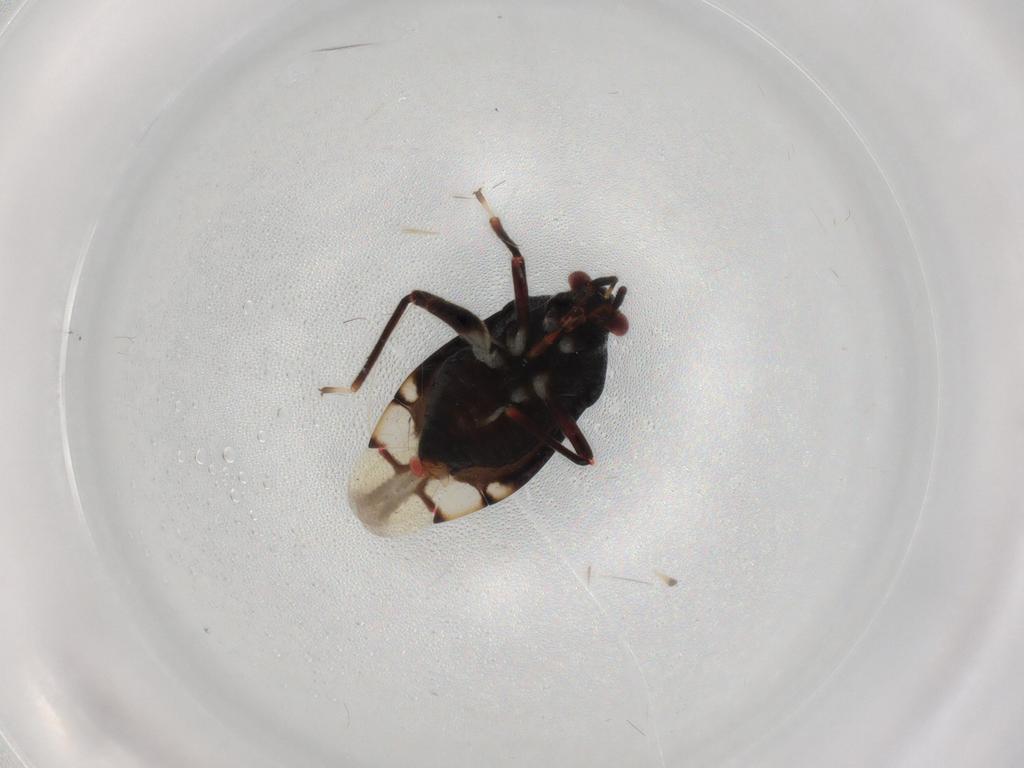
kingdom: Animalia
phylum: Arthropoda
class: Insecta
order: Hemiptera
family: Miridae
